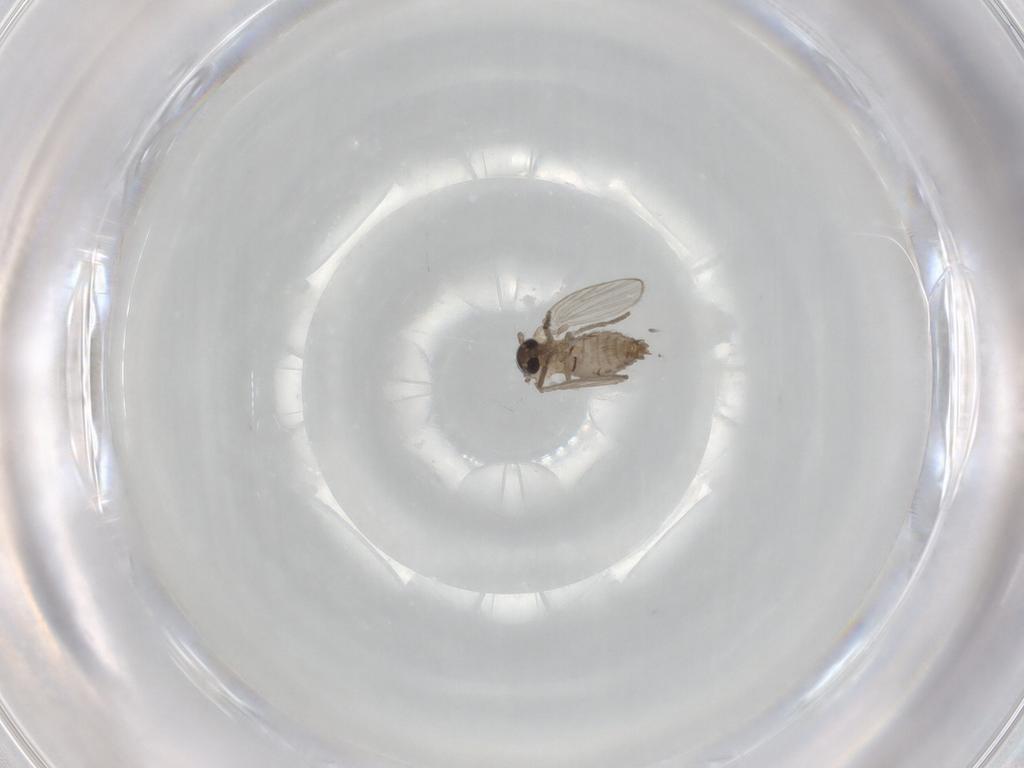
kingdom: Animalia
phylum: Arthropoda
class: Insecta
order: Diptera
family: Psychodidae
